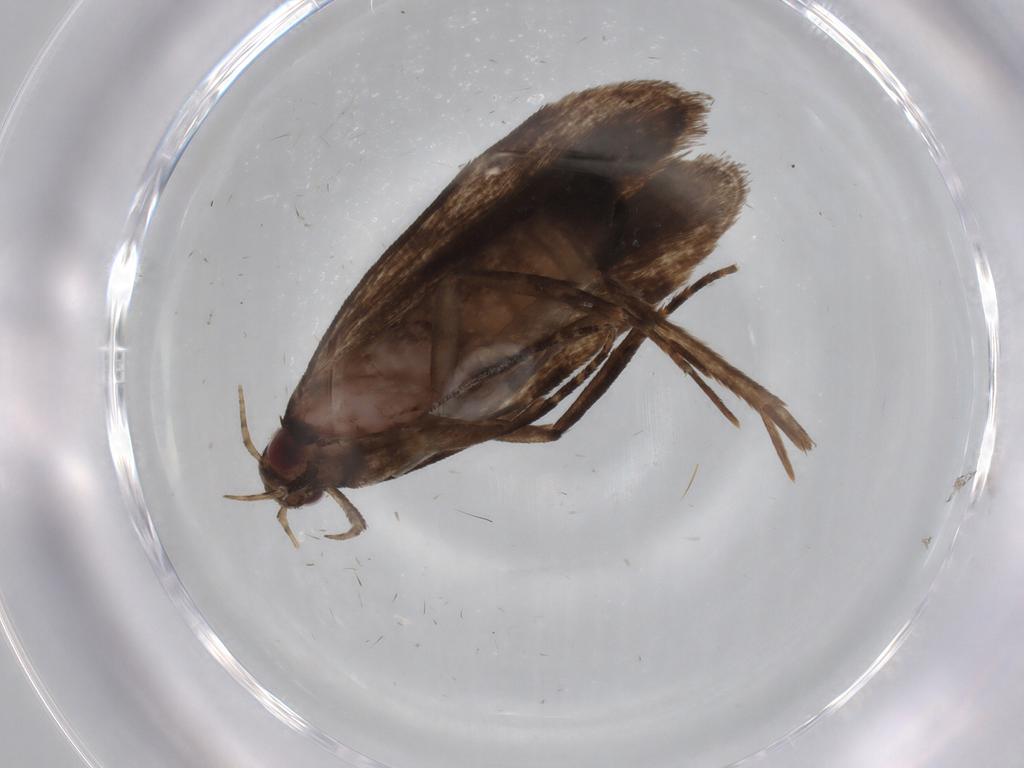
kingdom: Animalia
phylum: Arthropoda
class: Insecta
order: Lepidoptera
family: Gelechiidae
